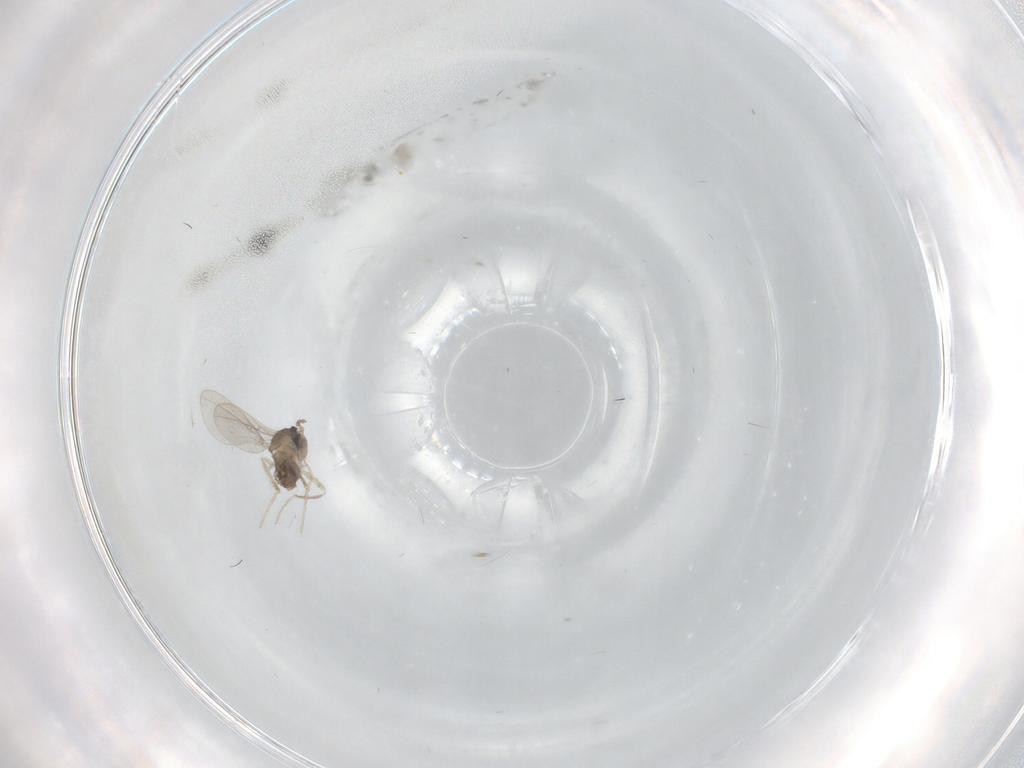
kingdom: Animalia
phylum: Arthropoda
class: Insecta
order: Diptera
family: Cecidomyiidae
